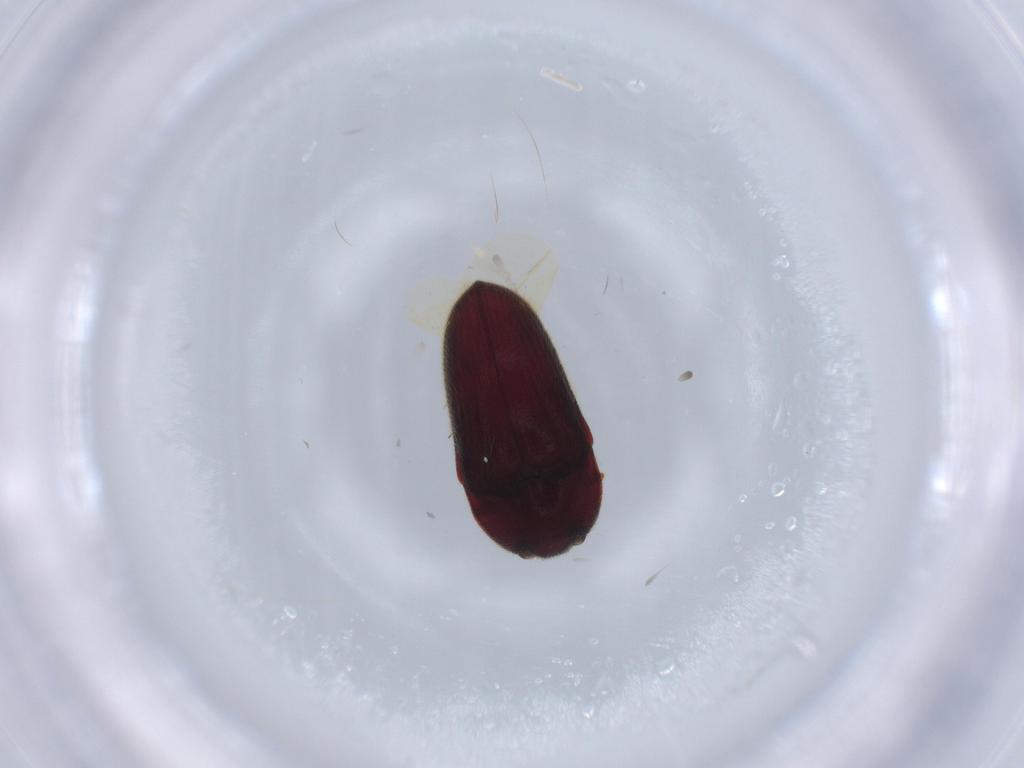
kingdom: Animalia
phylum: Arthropoda
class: Insecta
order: Coleoptera
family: Throscidae
